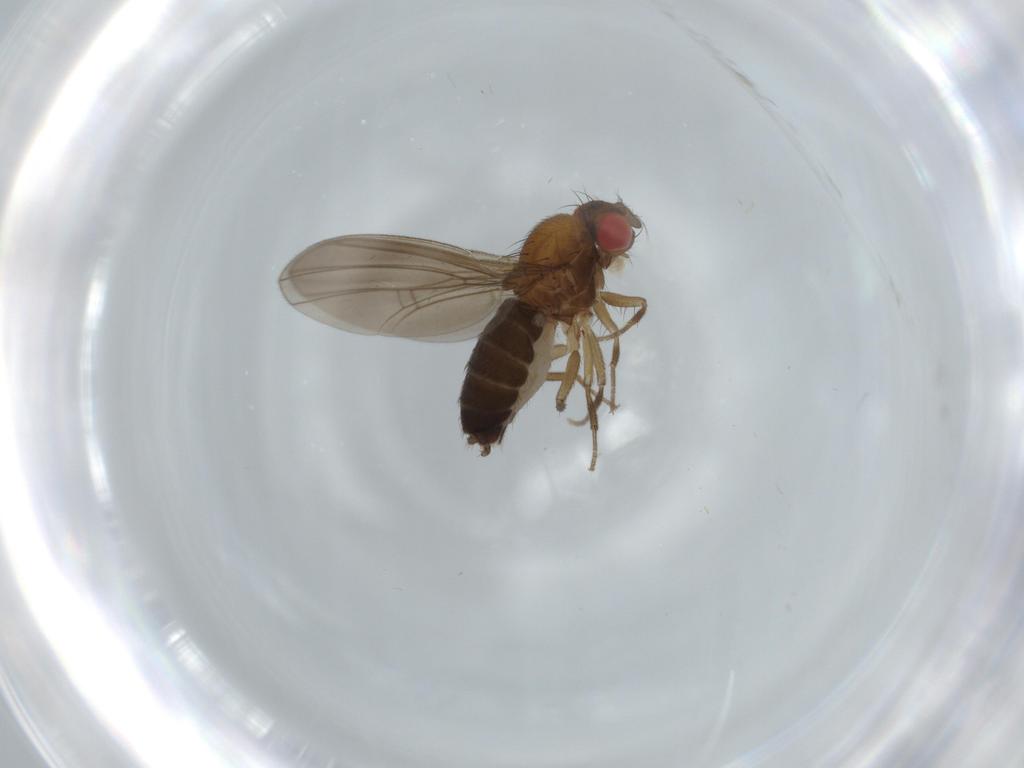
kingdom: Animalia
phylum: Arthropoda
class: Insecta
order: Diptera
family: Drosophilidae
